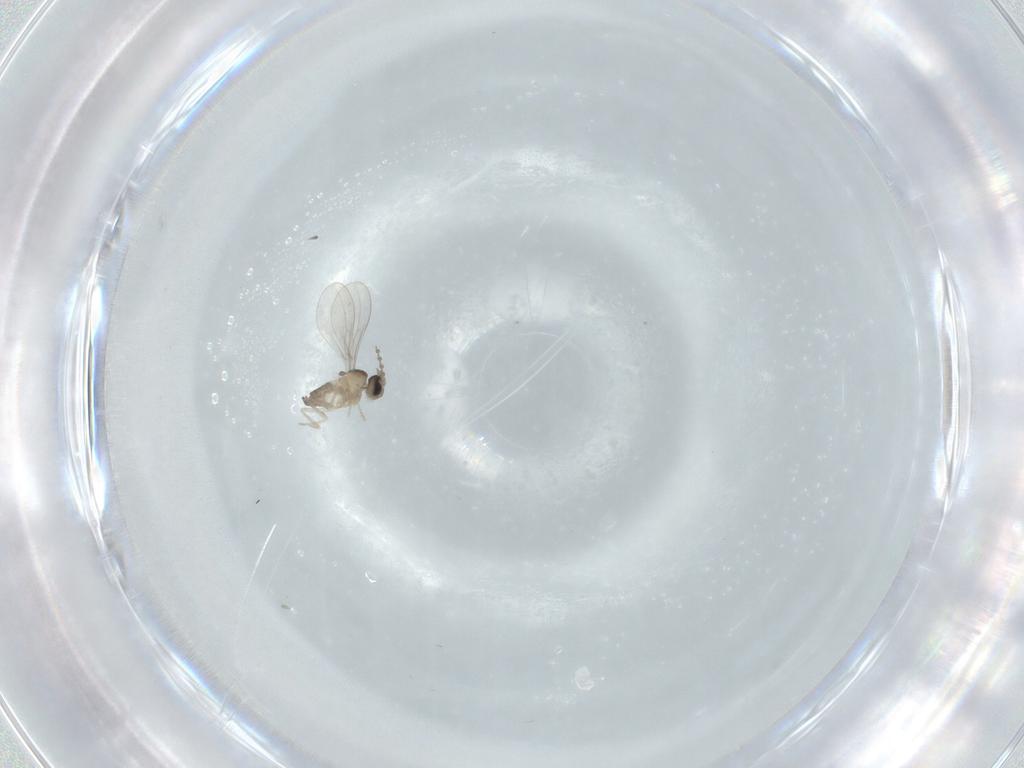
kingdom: Animalia
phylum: Arthropoda
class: Insecta
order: Diptera
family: Cecidomyiidae
